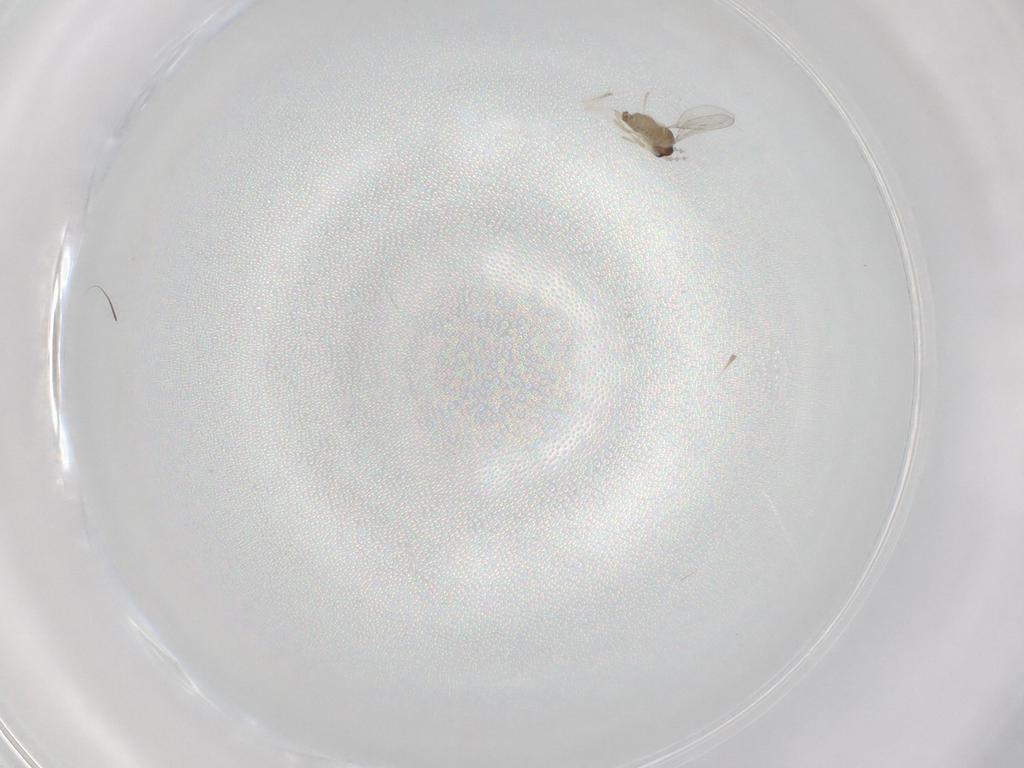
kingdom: Animalia
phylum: Arthropoda
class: Insecta
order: Diptera
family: Cecidomyiidae
